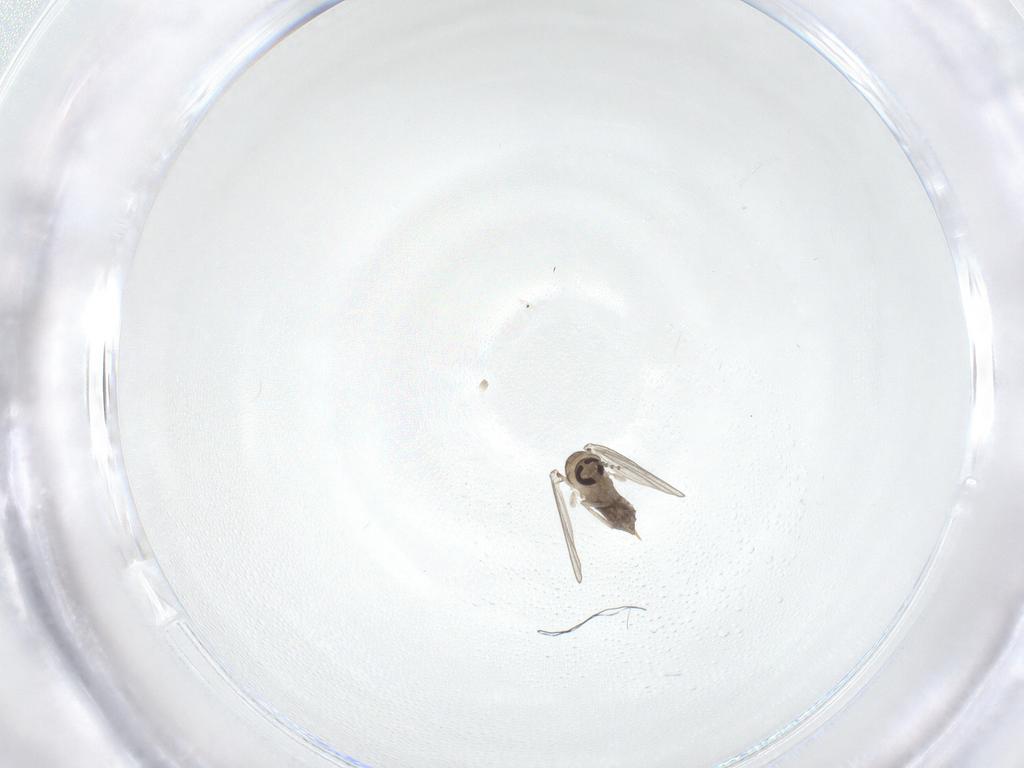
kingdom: Animalia
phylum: Arthropoda
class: Insecta
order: Diptera
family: Psychodidae
